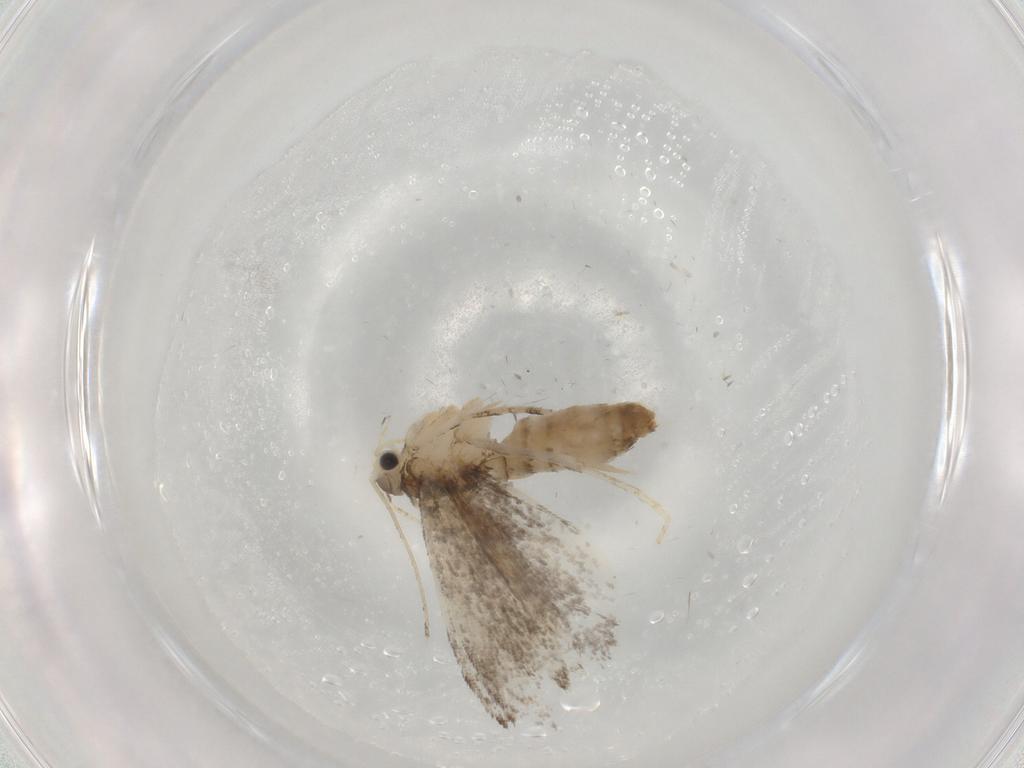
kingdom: Animalia
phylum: Arthropoda
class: Insecta
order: Lepidoptera
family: Tineidae
